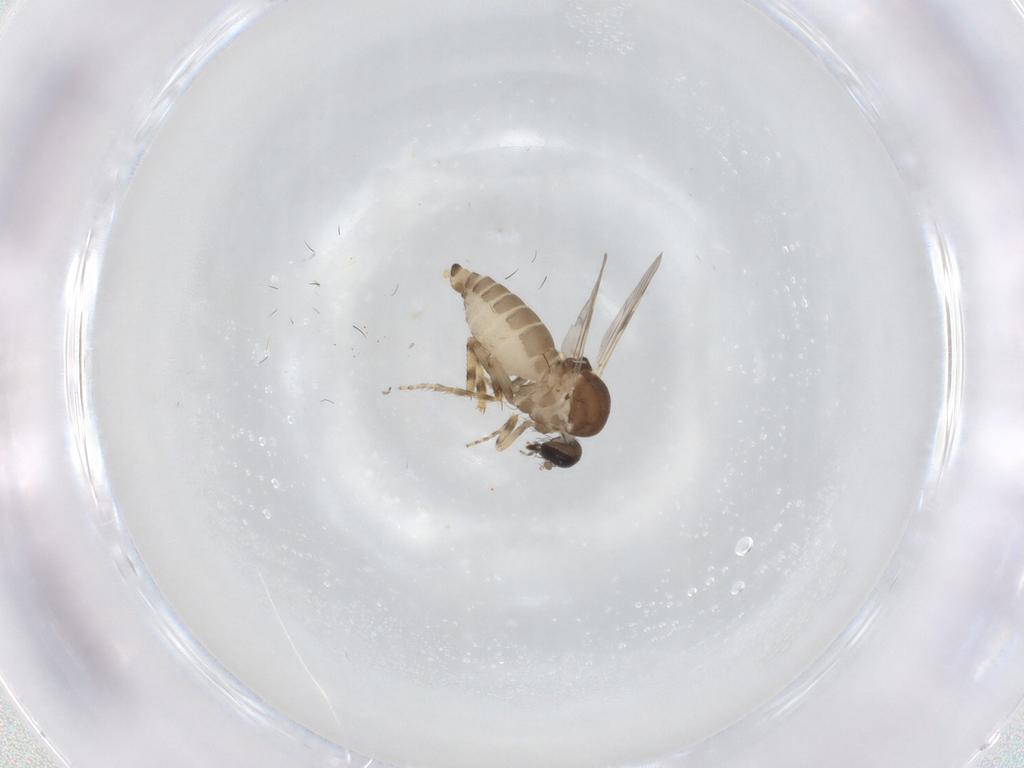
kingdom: Animalia
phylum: Arthropoda
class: Insecta
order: Diptera
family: Ceratopogonidae
